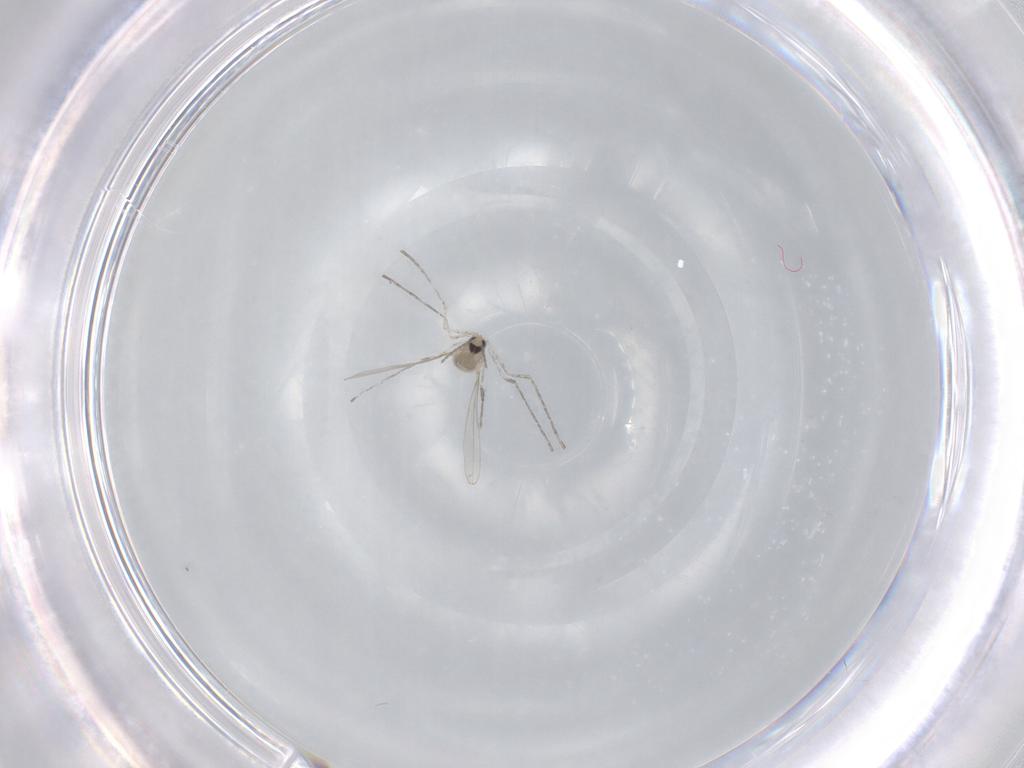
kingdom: Animalia
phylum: Arthropoda
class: Insecta
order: Diptera
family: Cecidomyiidae
